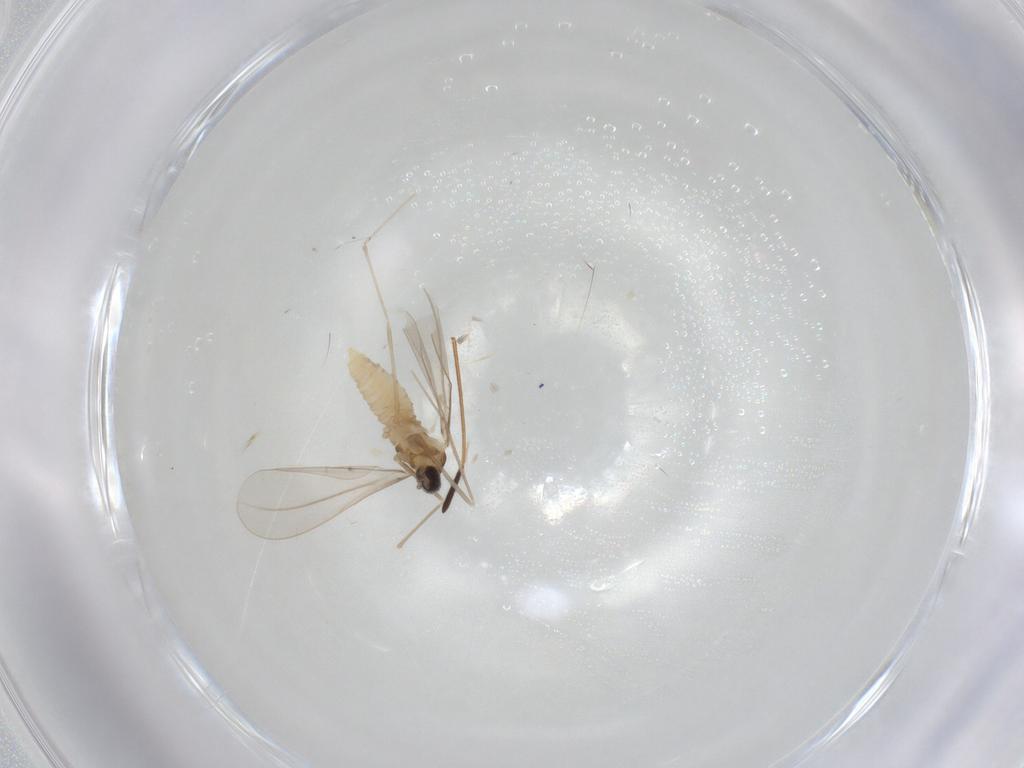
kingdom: Animalia
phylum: Arthropoda
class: Insecta
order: Diptera
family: Cecidomyiidae
